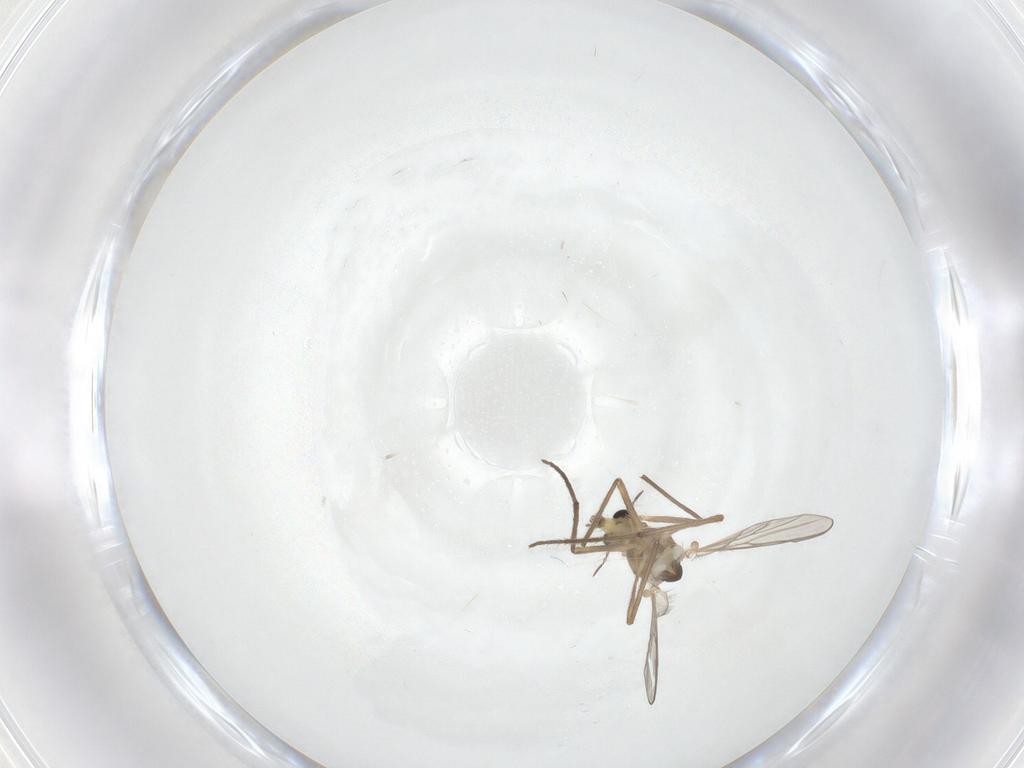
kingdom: Animalia
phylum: Arthropoda
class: Insecta
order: Diptera
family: Chironomidae
